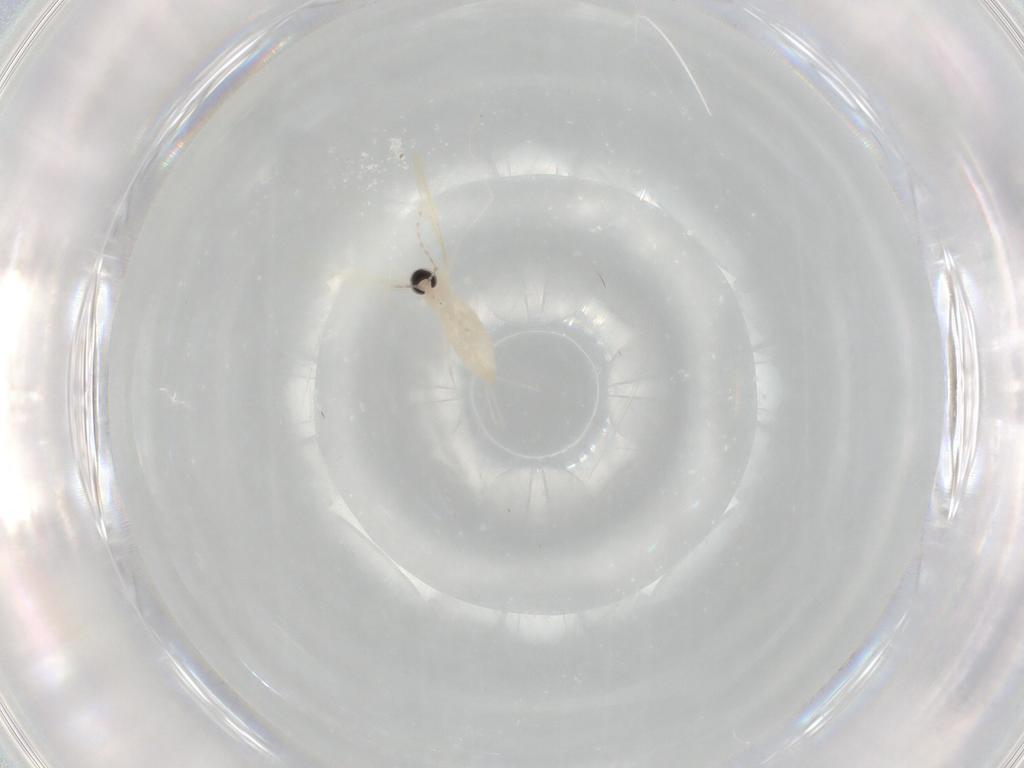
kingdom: Animalia
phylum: Arthropoda
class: Insecta
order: Diptera
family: Cecidomyiidae
